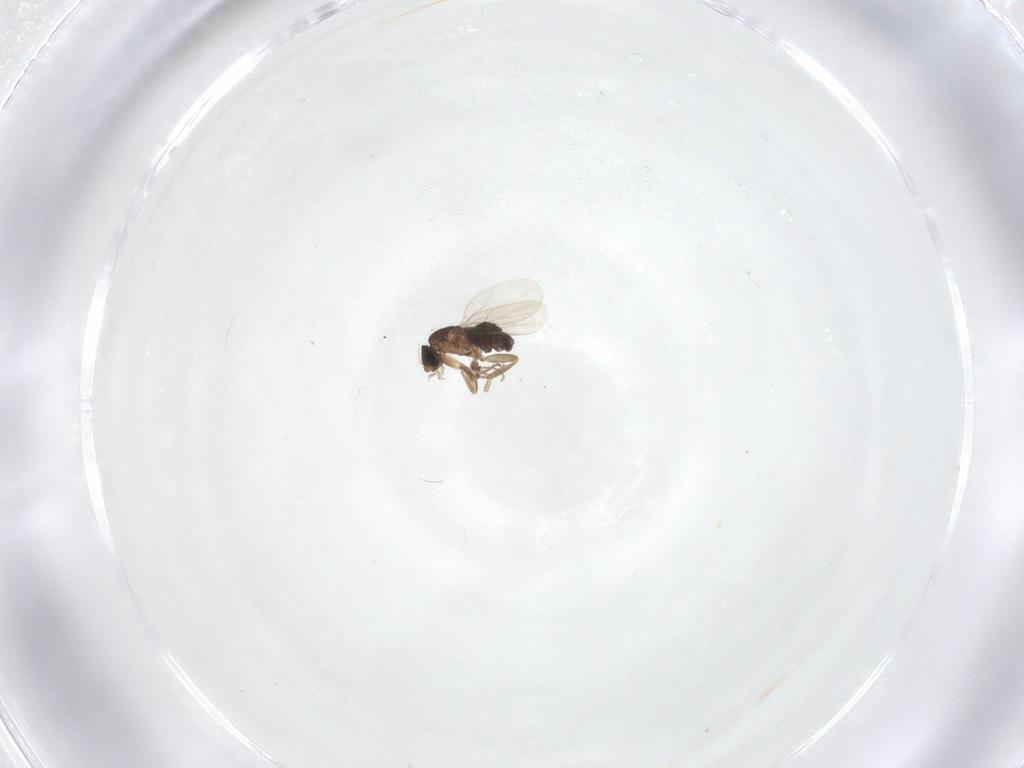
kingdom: Animalia
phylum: Arthropoda
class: Insecta
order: Diptera
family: Phoridae
